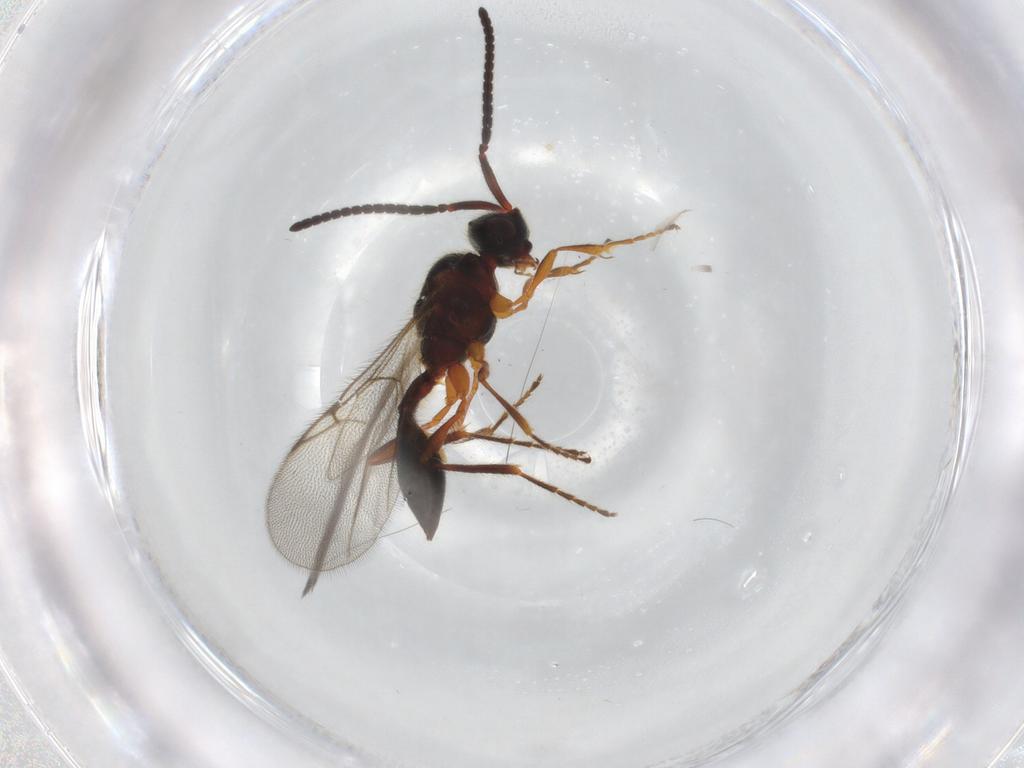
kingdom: Animalia
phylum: Arthropoda
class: Insecta
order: Hymenoptera
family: Diapriidae
